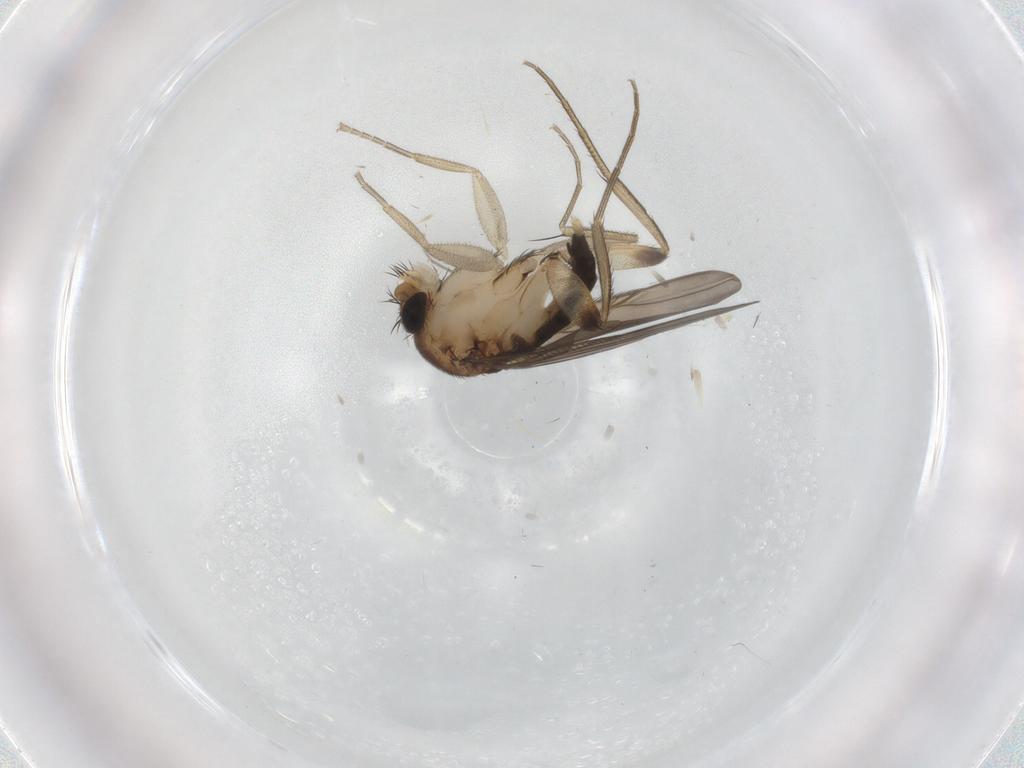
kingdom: Animalia
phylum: Arthropoda
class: Insecta
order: Diptera
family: Phoridae
